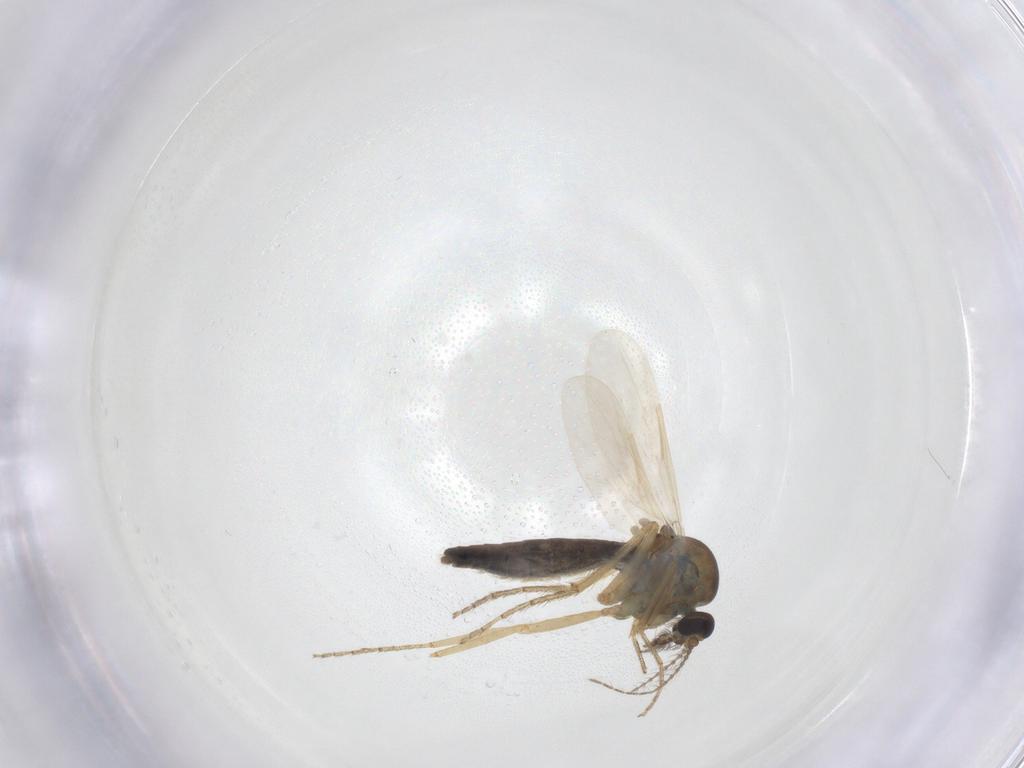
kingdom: Animalia
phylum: Arthropoda
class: Insecta
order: Diptera
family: Ceratopogonidae
